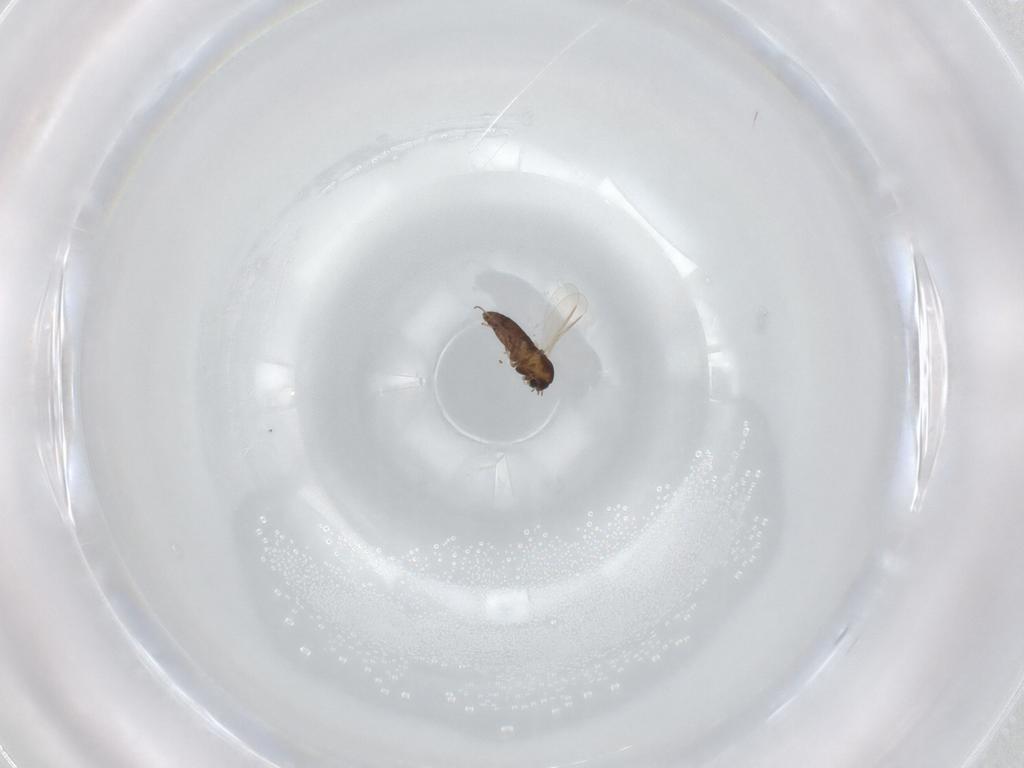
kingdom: Animalia
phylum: Arthropoda
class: Insecta
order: Diptera
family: Chironomidae
